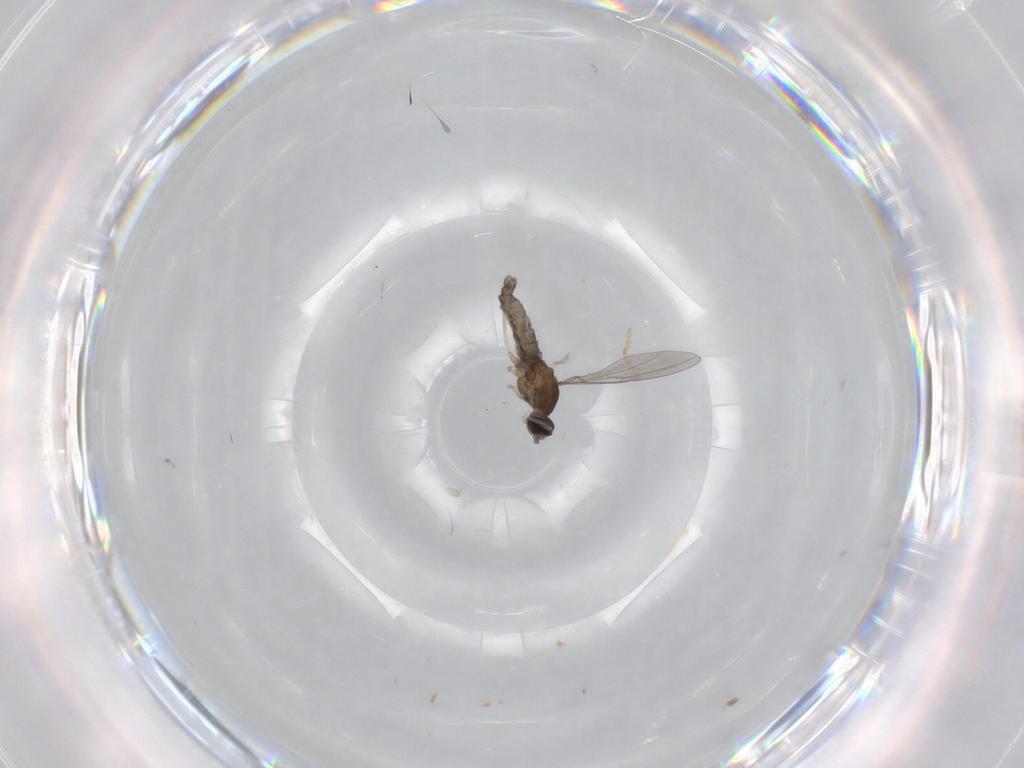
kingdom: Animalia
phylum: Arthropoda
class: Insecta
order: Diptera
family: Cecidomyiidae
